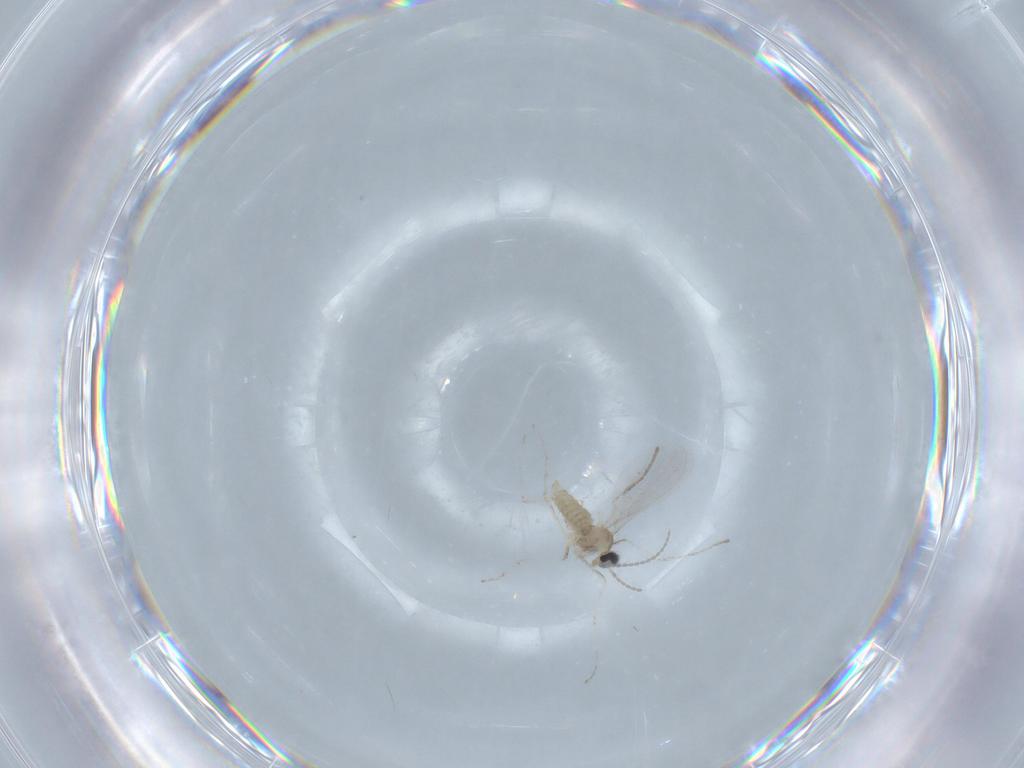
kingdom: Animalia
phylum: Arthropoda
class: Insecta
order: Diptera
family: Cecidomyiidae
